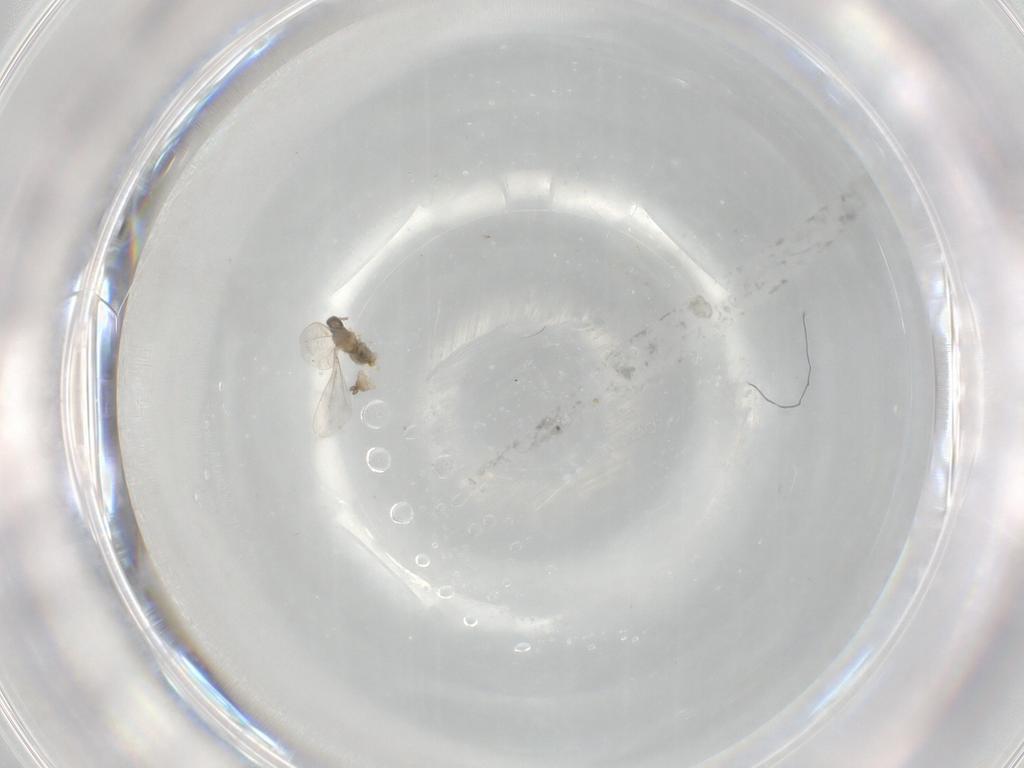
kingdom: Animalia
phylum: Arthropoda
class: Insecta
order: Diptera
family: Cecidomyiidae
